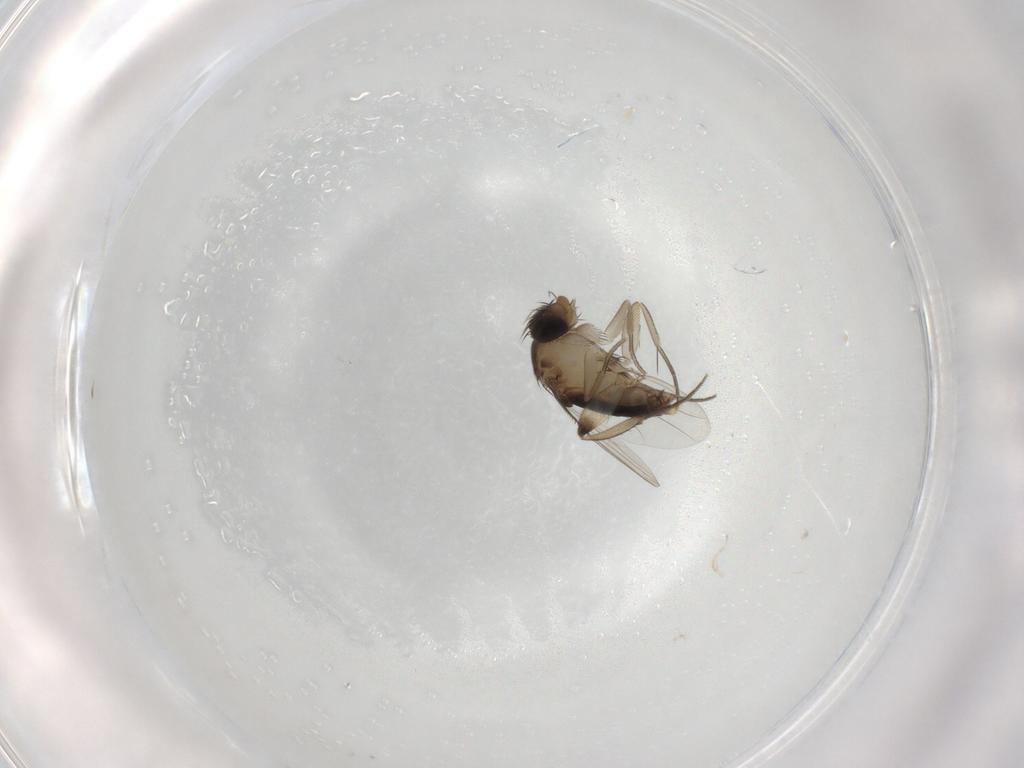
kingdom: Animalia
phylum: Arthropoda
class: Insecta
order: Diptera
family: Phoridae
